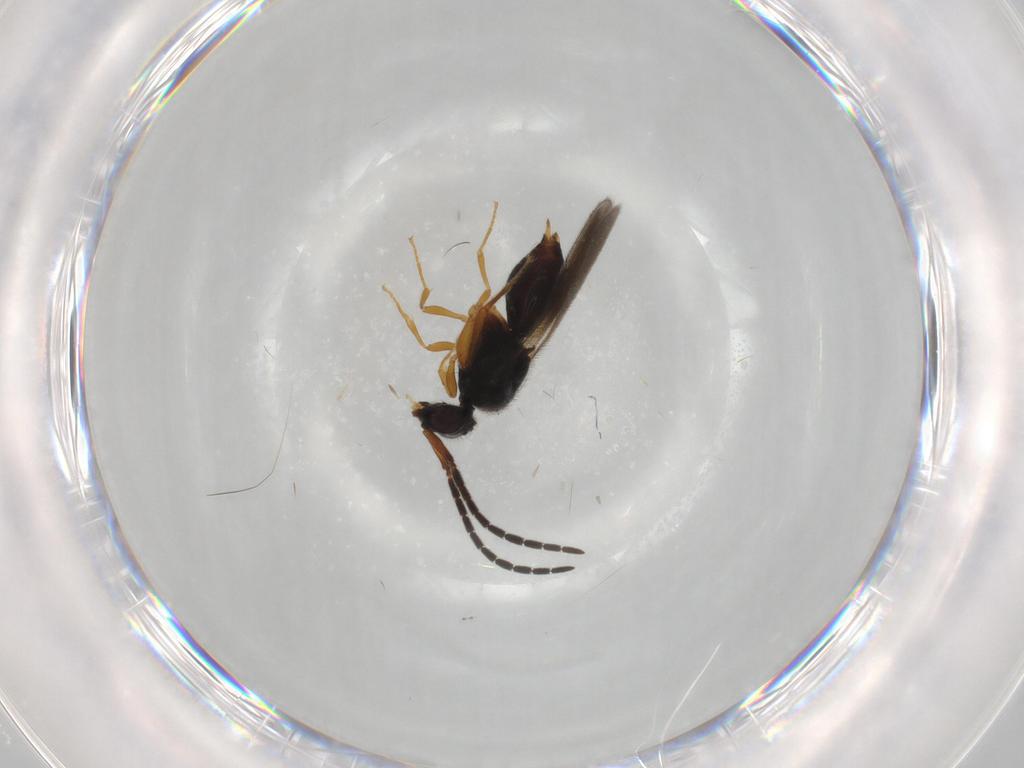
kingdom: Animalia
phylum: Arthropoda
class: Insecta
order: Hymenoptera
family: Ceraphronidae
